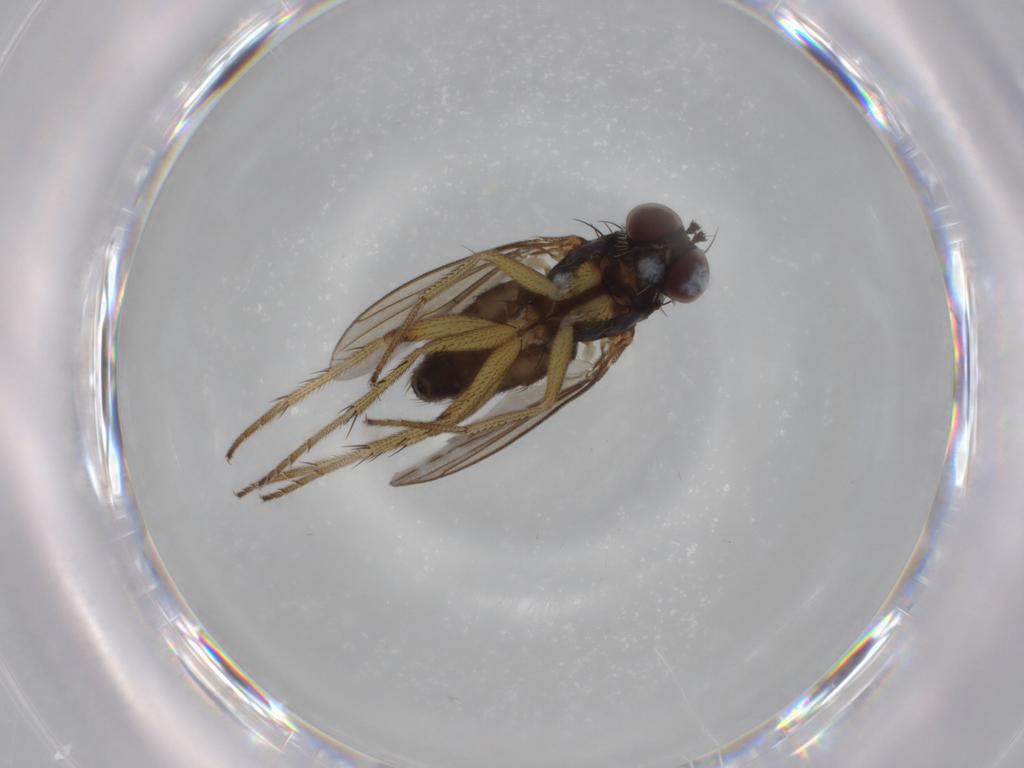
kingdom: Animalia
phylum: Arthropoda
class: Insecta
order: Diptera
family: Dolichopodidae
